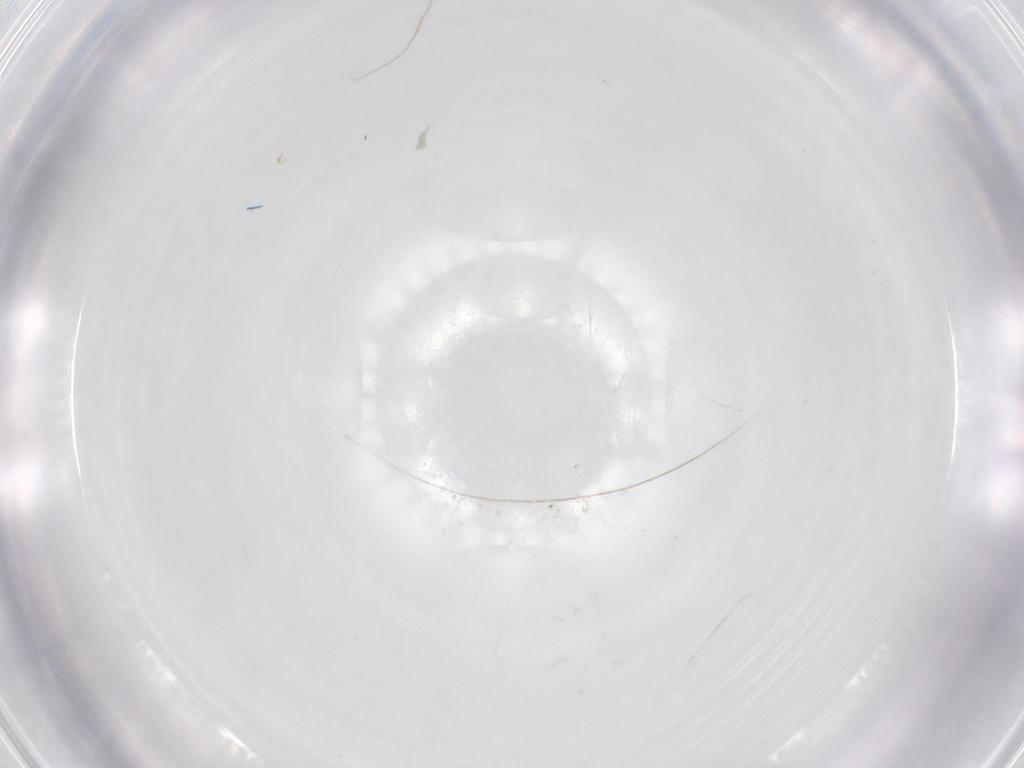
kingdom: Animalia
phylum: Arthropoda
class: Insecta
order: Diptera
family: Sciaridae
